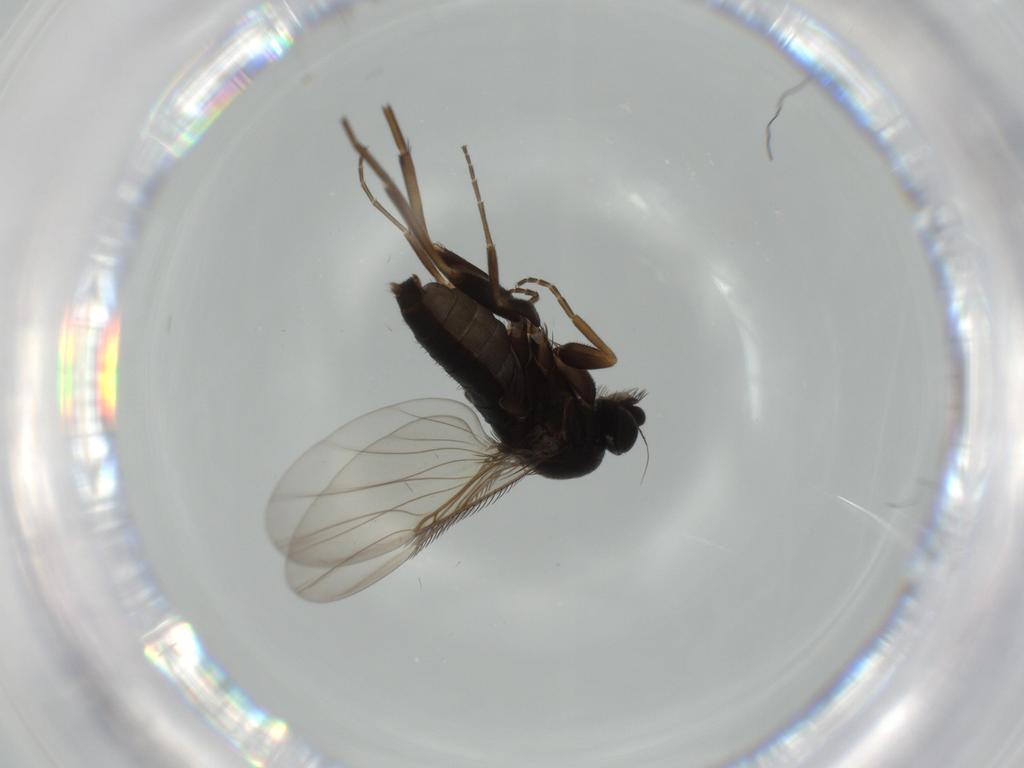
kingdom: Animalia
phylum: Arthropoda
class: Insecta
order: Diptera
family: Phoridae
